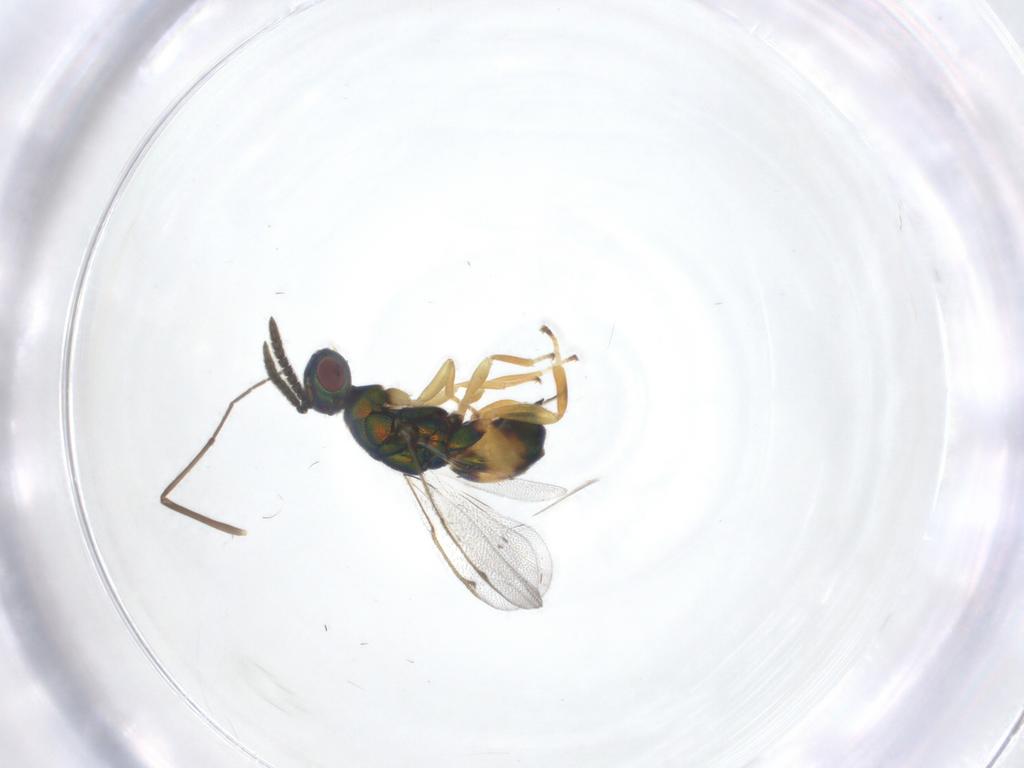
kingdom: Animalia
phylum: Arthropoda
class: Insecta
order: Hymenoptera
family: Torymidae
